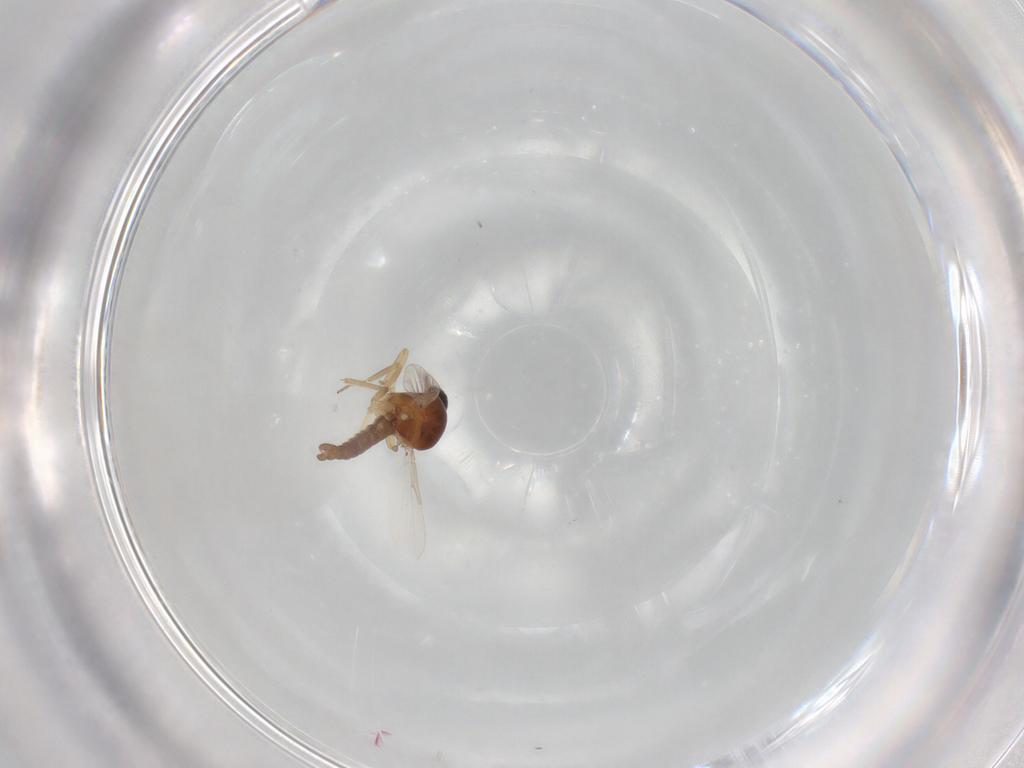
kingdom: Animalia
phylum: Arthropoda
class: Insecta
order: Diptera
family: Ceratopogonidae
